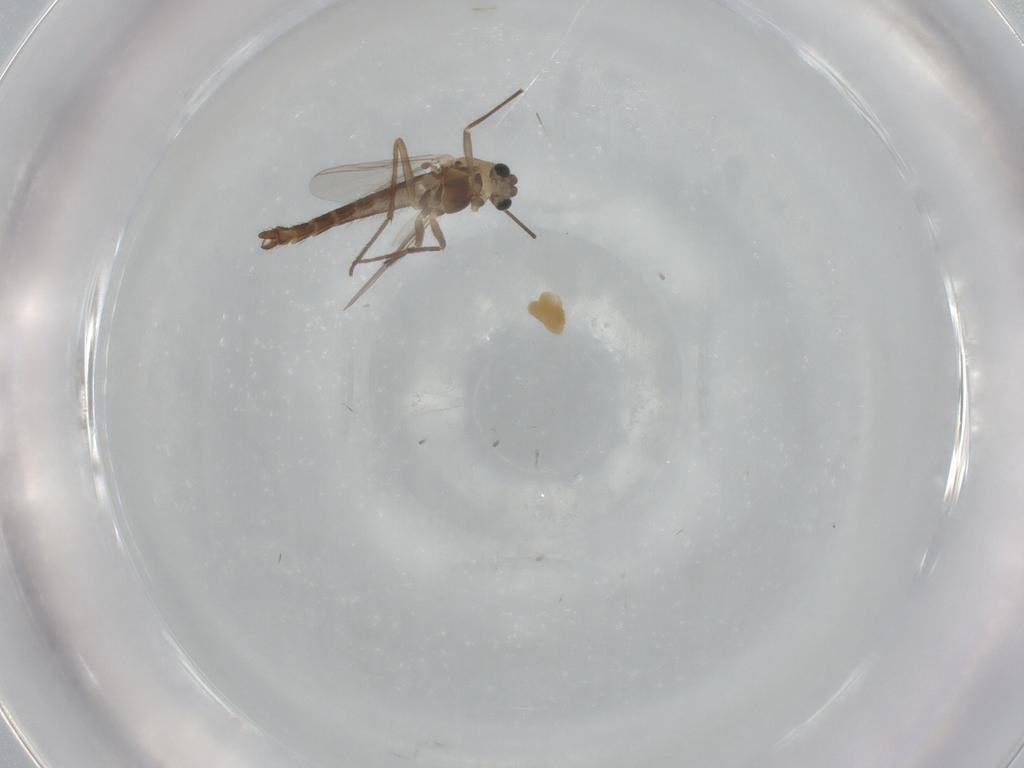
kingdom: Animalia
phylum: Arthropoda
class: Insecta
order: Diptera
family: Chironomidae
